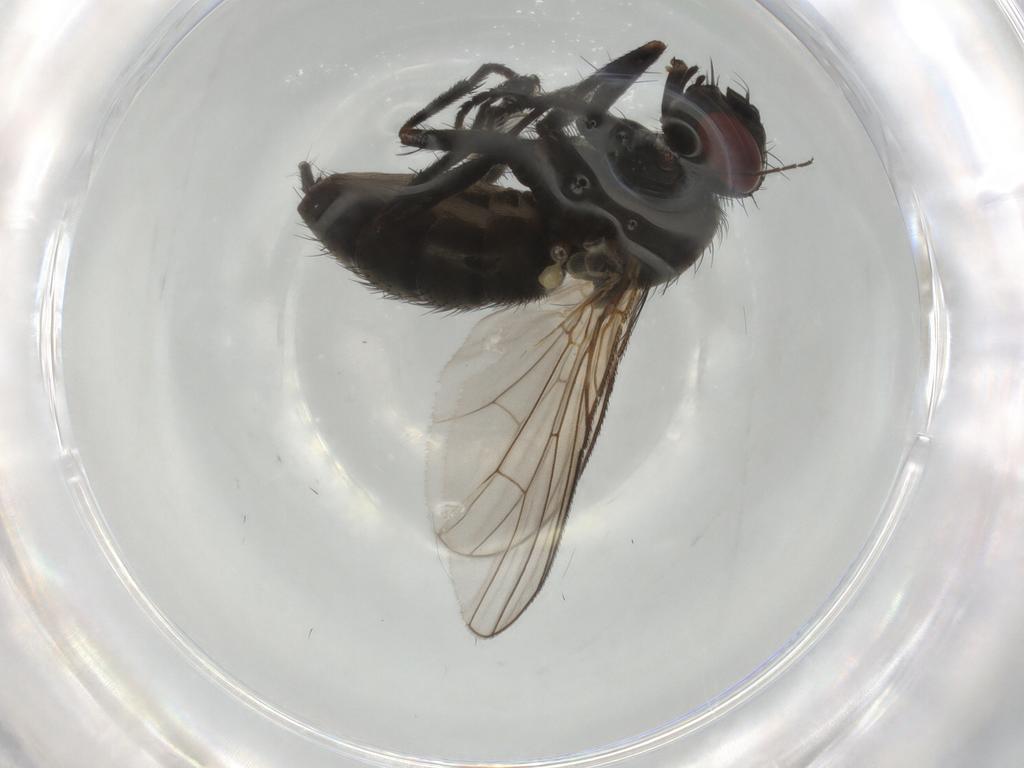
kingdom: Animalia
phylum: Arthropoda
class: Insecta
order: Diptera
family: Muscidae
